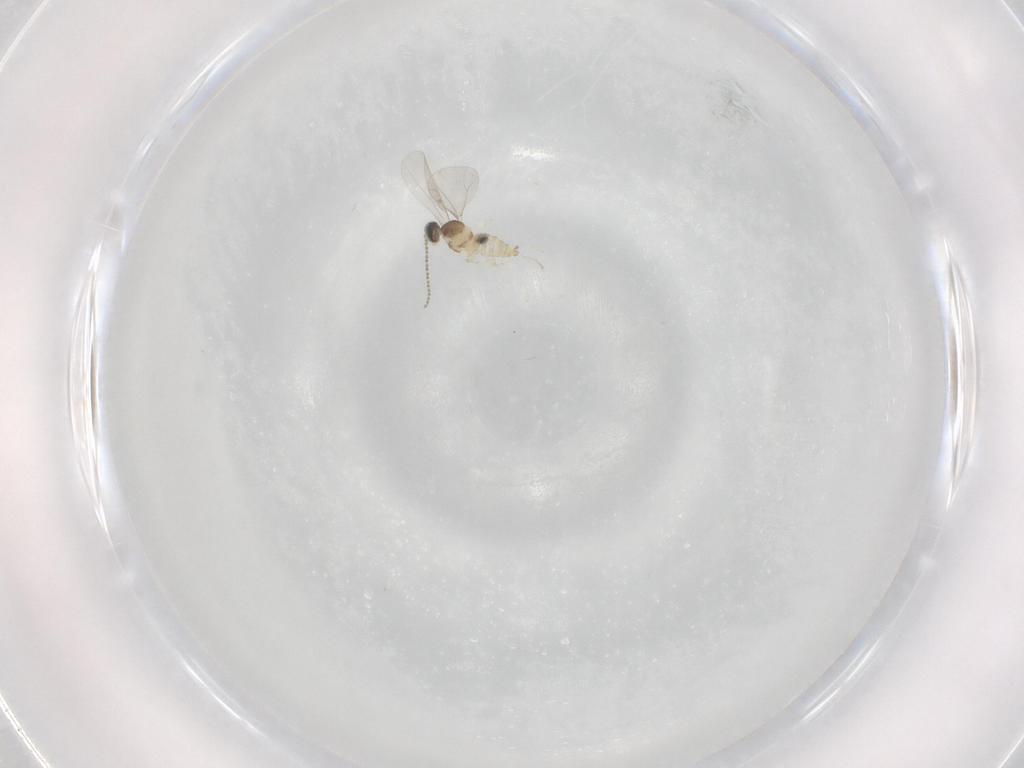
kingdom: Animalia
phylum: Arthropoda
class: Insecta
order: Diptera
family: Cecidomyiidae
